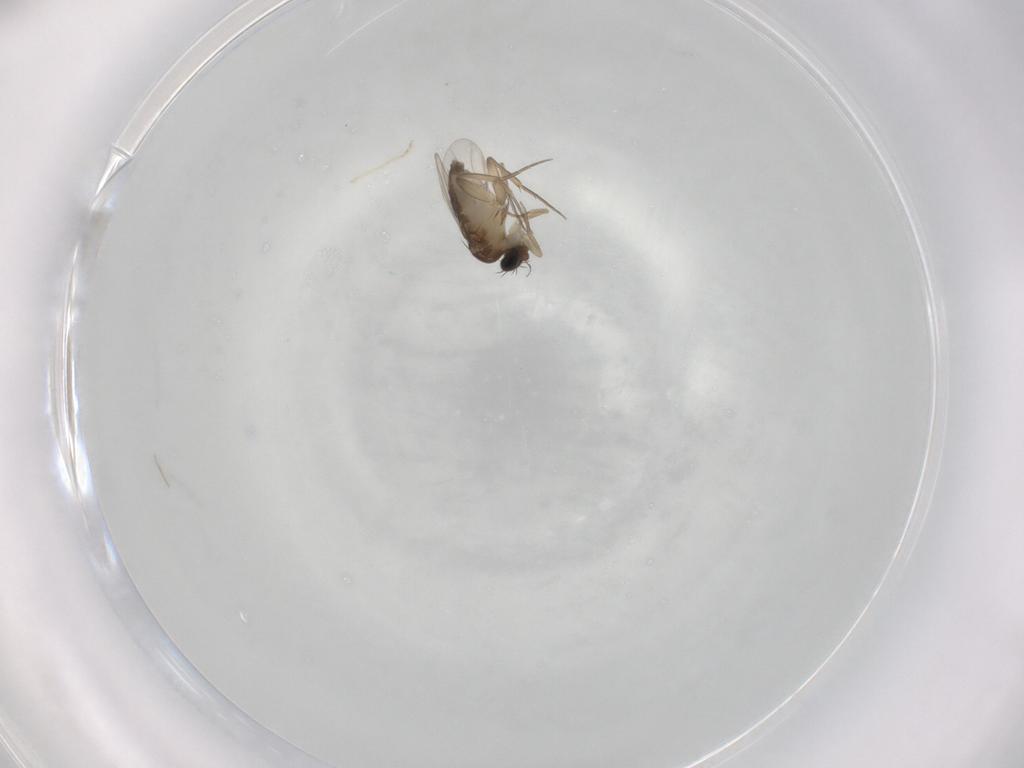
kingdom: Animalia
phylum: Arthropoda
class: Insecta
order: Diptera
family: Phoridae
